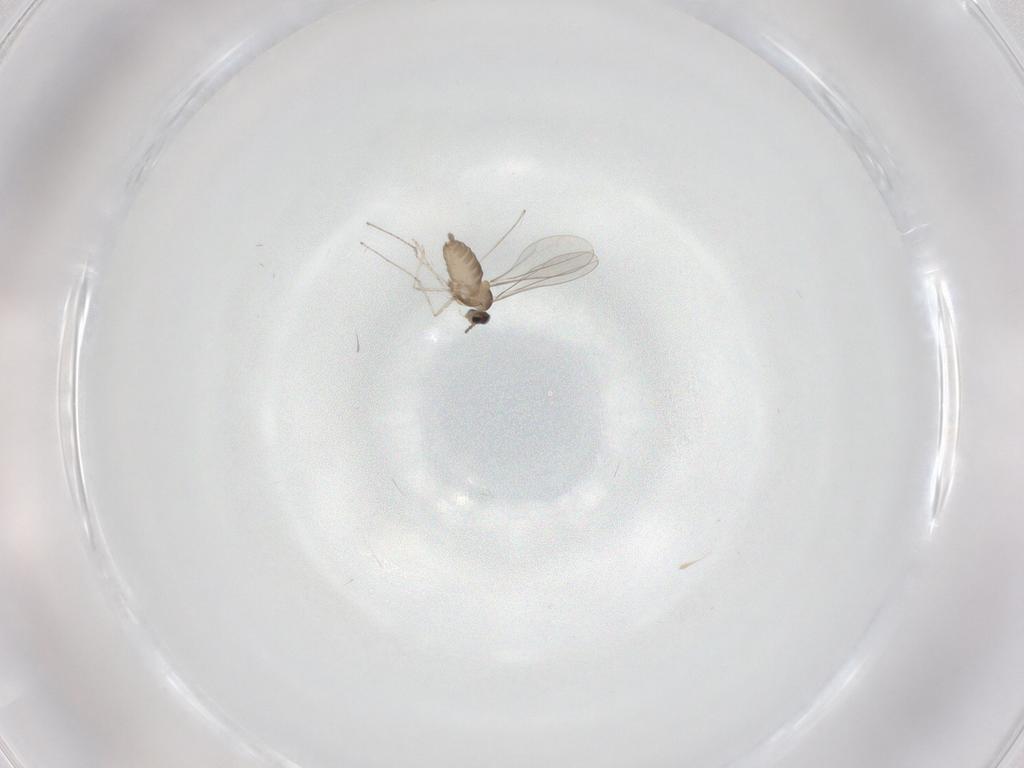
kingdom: Animalia
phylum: Arthropoda
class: Insecta
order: Diptera
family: Cecidomyiidae
